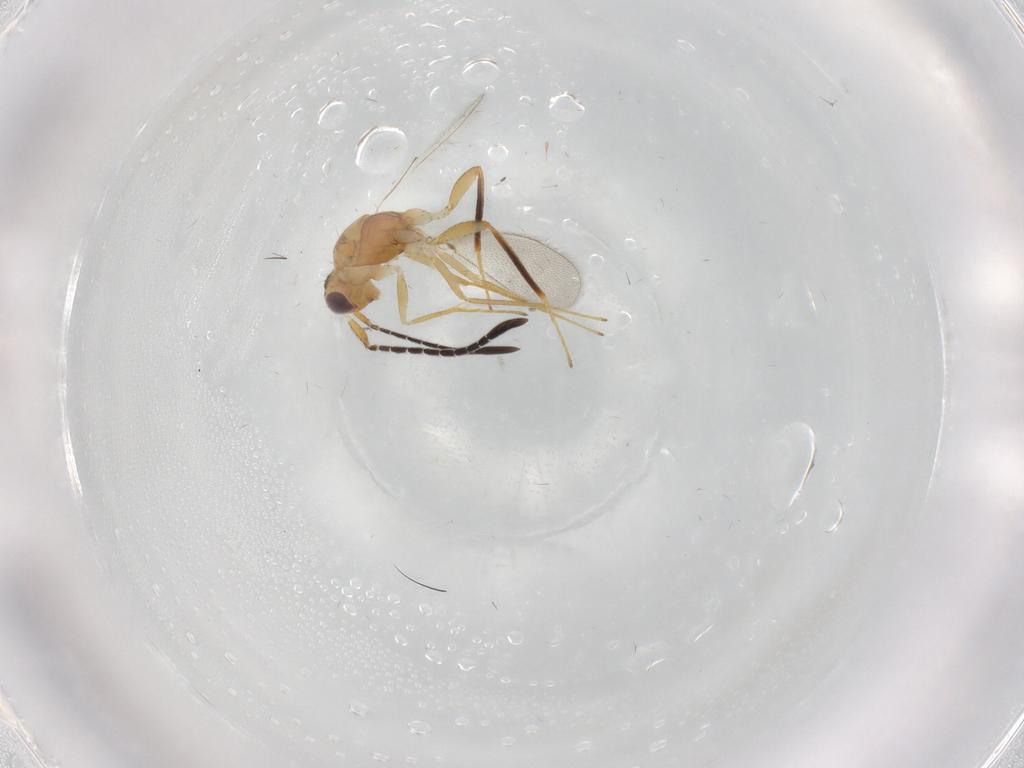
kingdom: Animalia
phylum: Arthropoda
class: Insecta
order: Hymenoptera
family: Mymaridae
